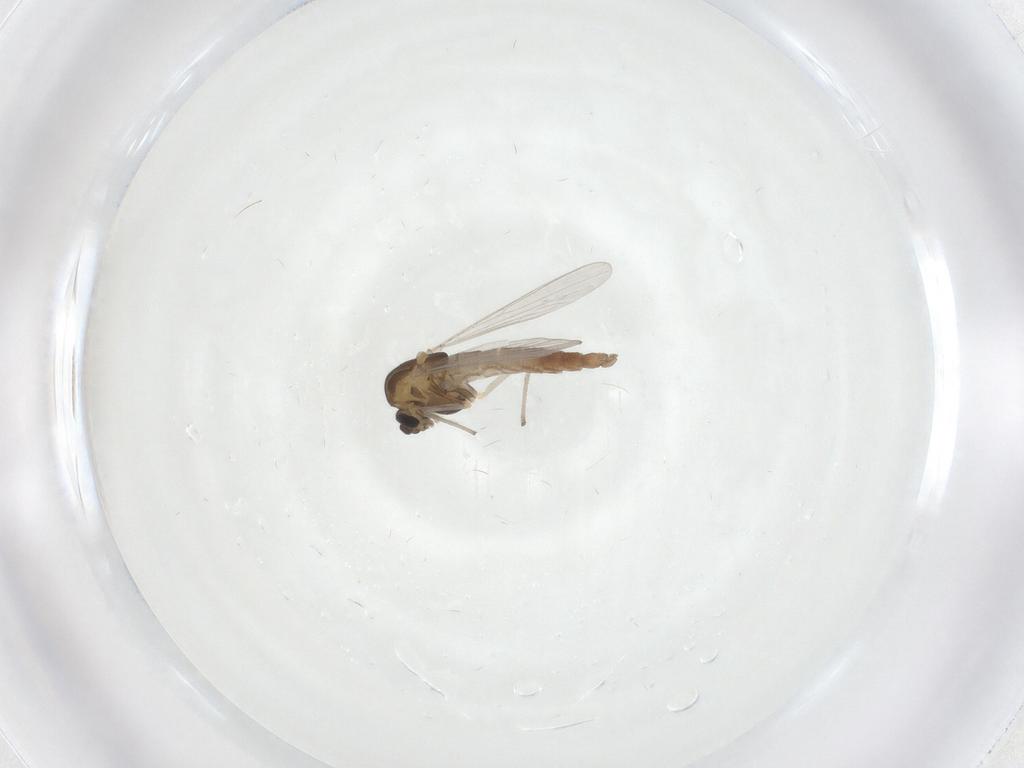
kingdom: Animalia
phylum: Arthropoda
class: Insecta
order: Diptera
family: Chironomidae
